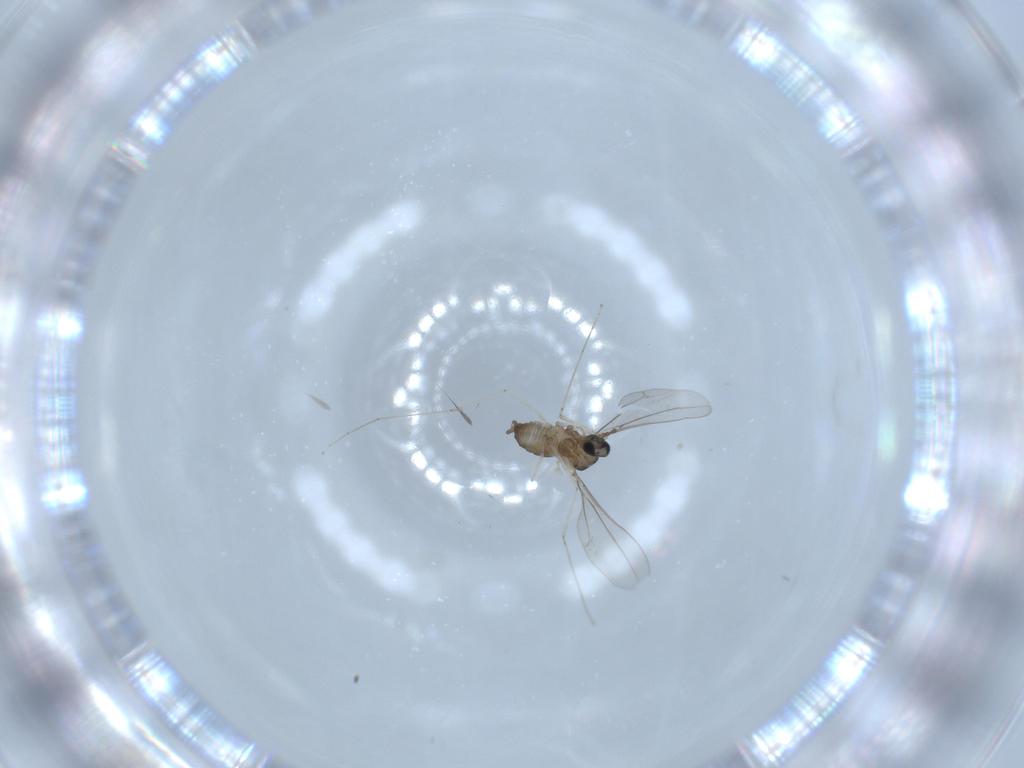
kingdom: Animalia
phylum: Arthropoda
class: Insecta
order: Diptera
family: Cecidomyiidae
